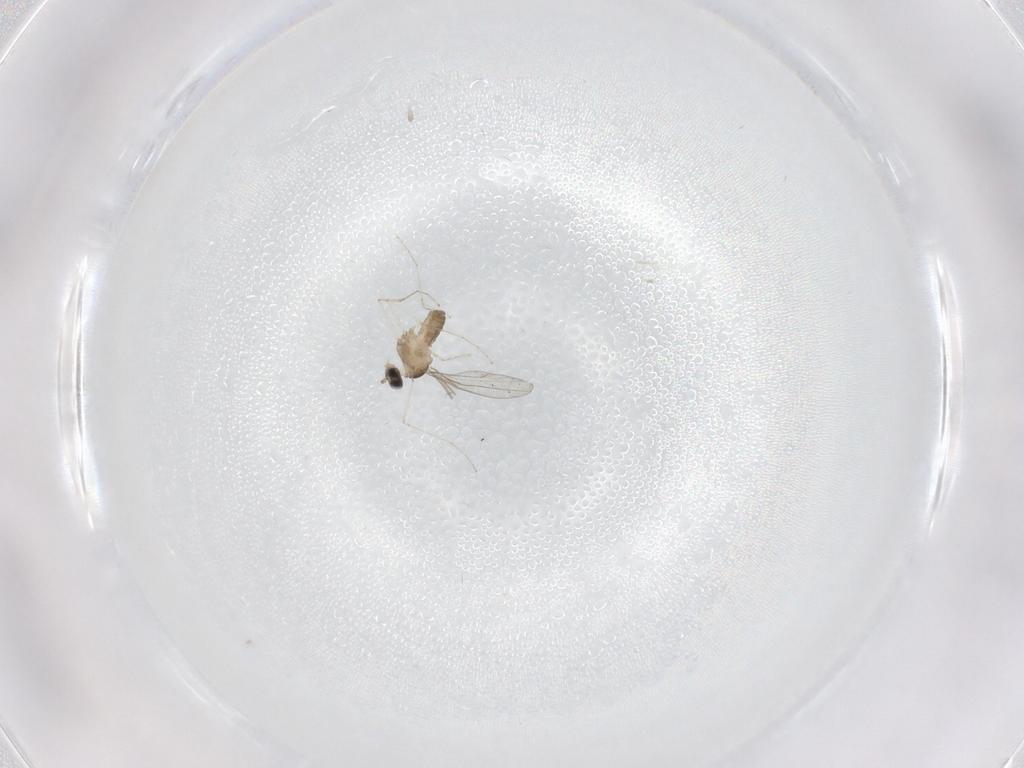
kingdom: Animalia
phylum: Arthropoda
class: Insecta
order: Diptera
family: Cecidomyiidae
